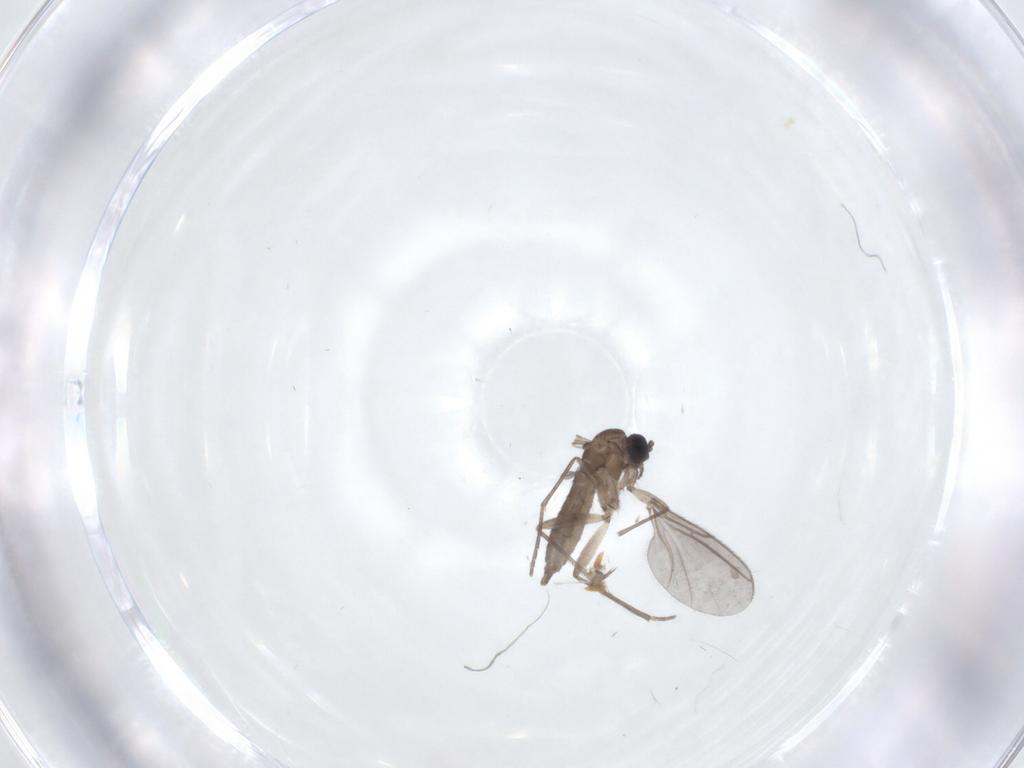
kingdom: Animalia
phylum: Arthropoda
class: Insecta
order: Diptera
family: Sciaridae
